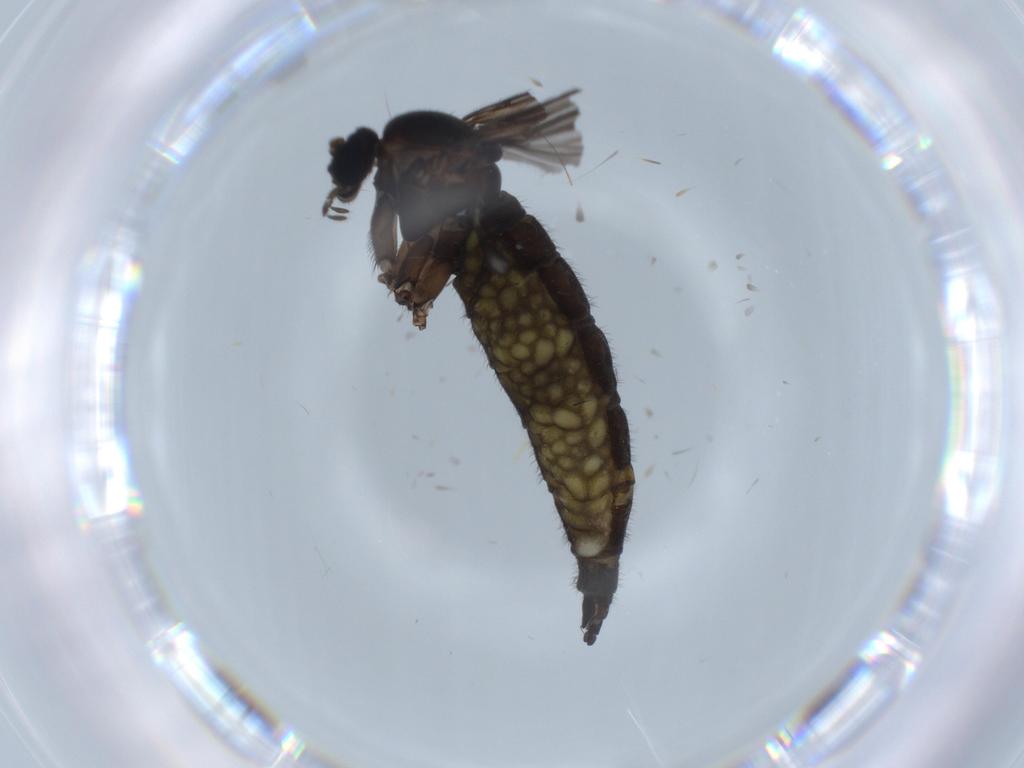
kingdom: Animalia
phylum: Arthropoda
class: Insecta
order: Diptera
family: Sciaridae
